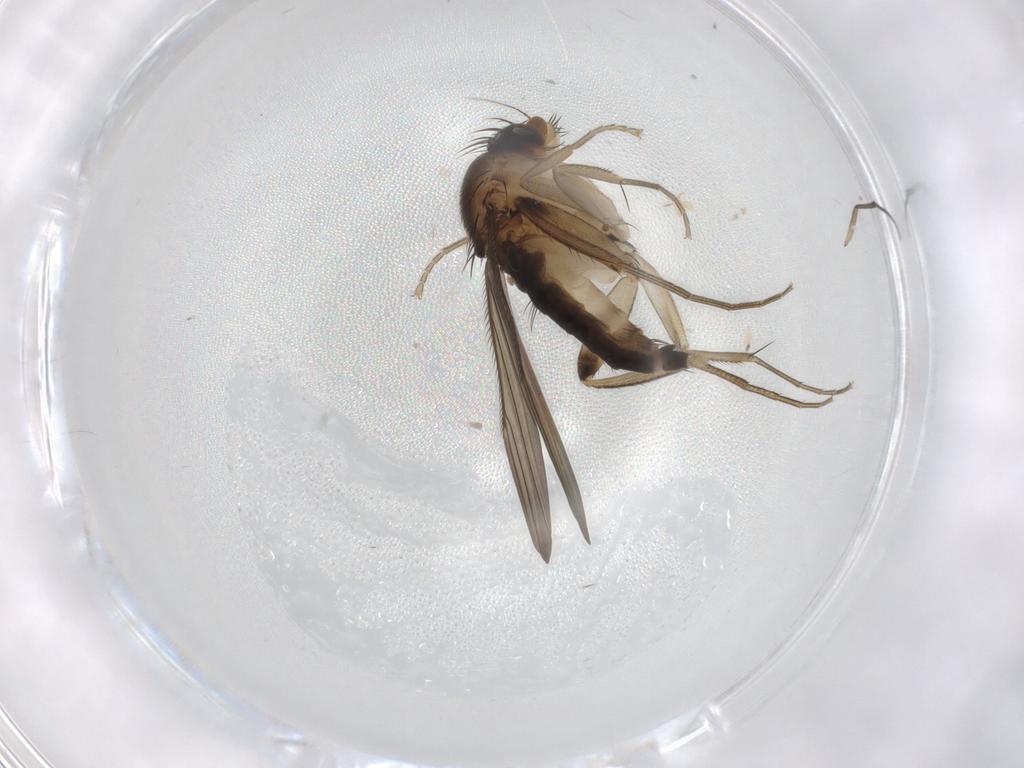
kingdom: Animalia
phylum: Arthropoda
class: Insecta
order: Diptera
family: Phoridae
